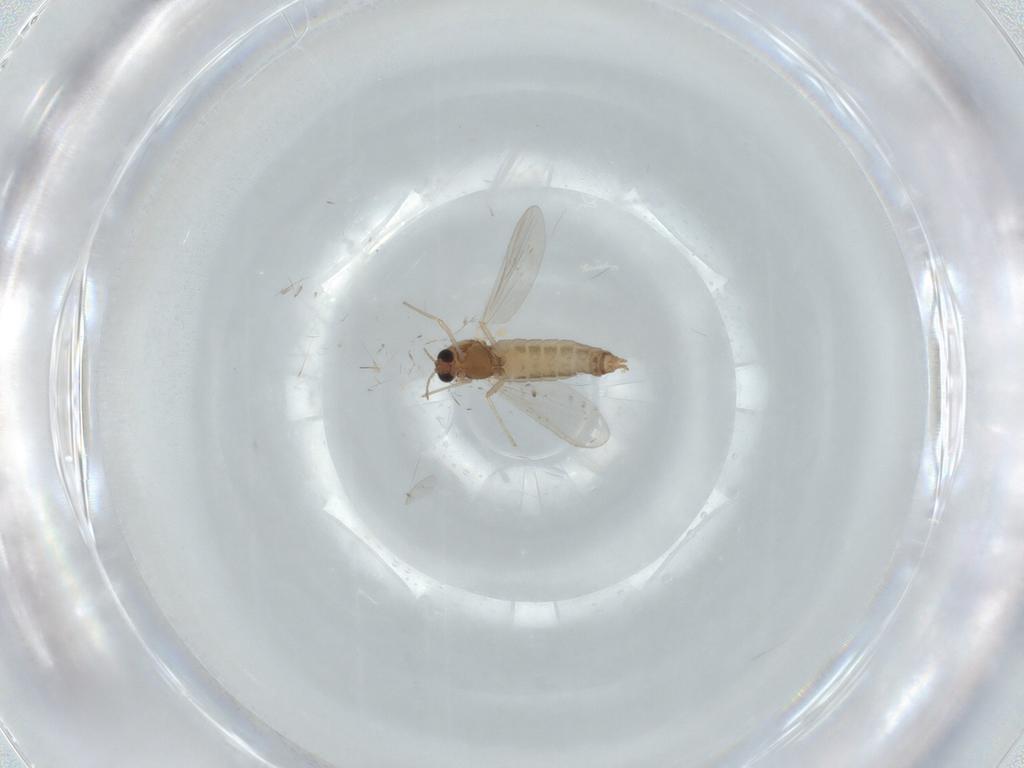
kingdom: Animalia
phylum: Arthropoda
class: Insecta
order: Diptera
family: Chironomidae
